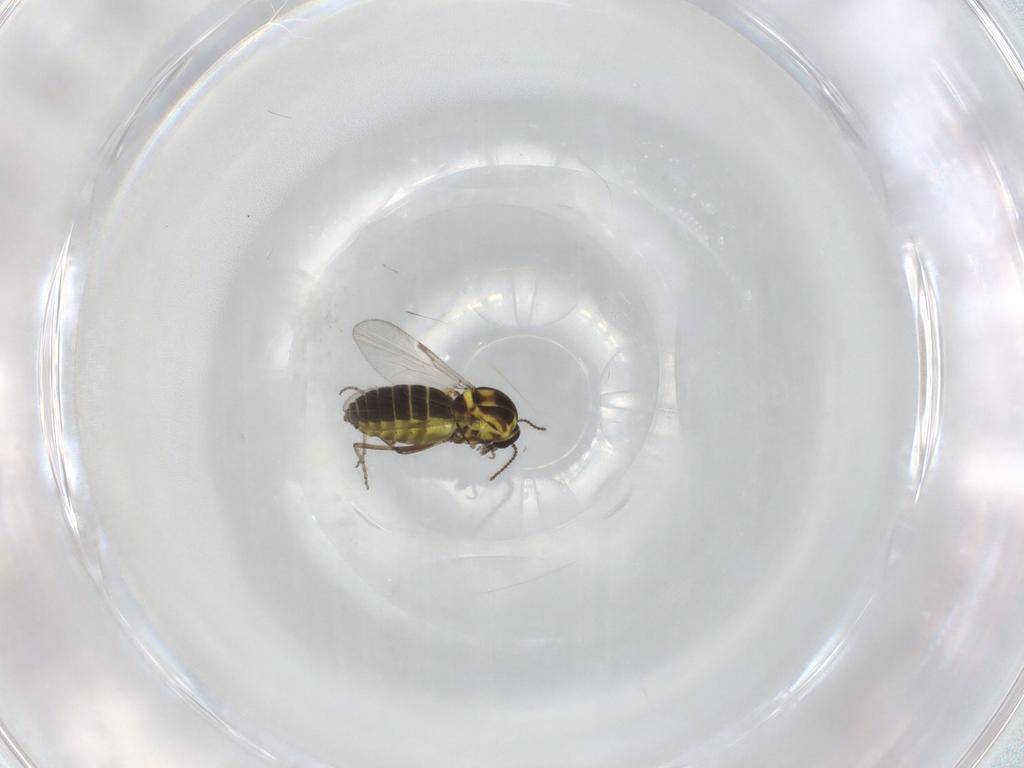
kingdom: Animalia
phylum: Arthropoda
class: Insecta
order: Diptera
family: Ceratopogonidae
